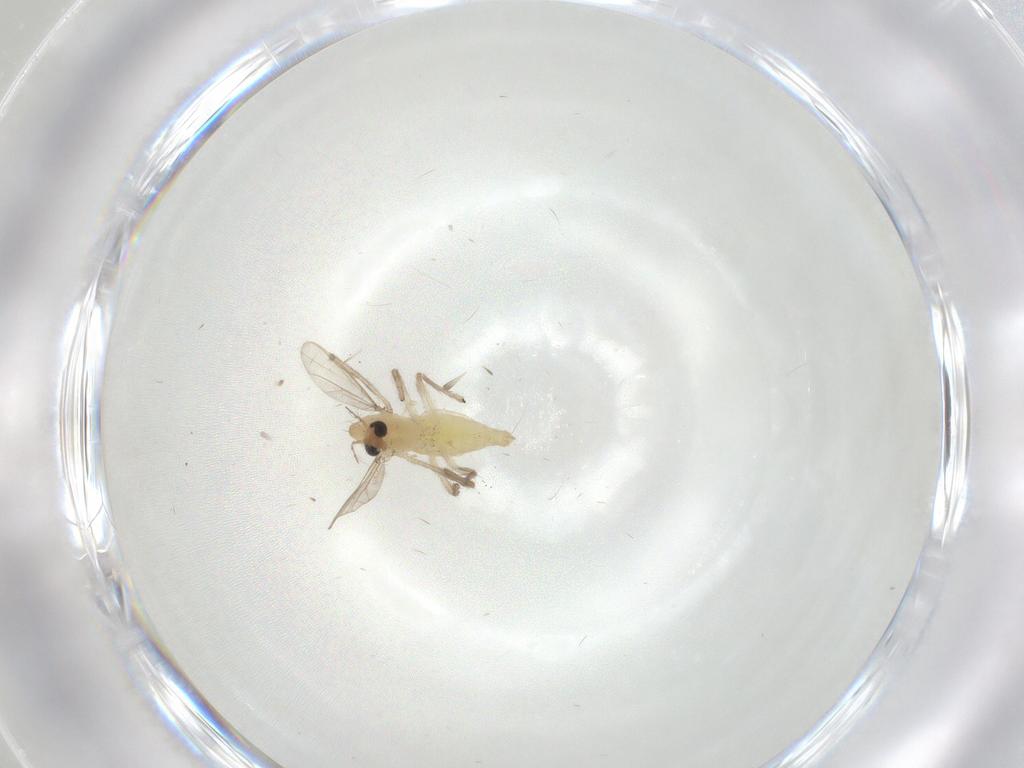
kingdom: Animalia
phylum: Arthropoda
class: Insecta
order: Diptera
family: Chironomidae
